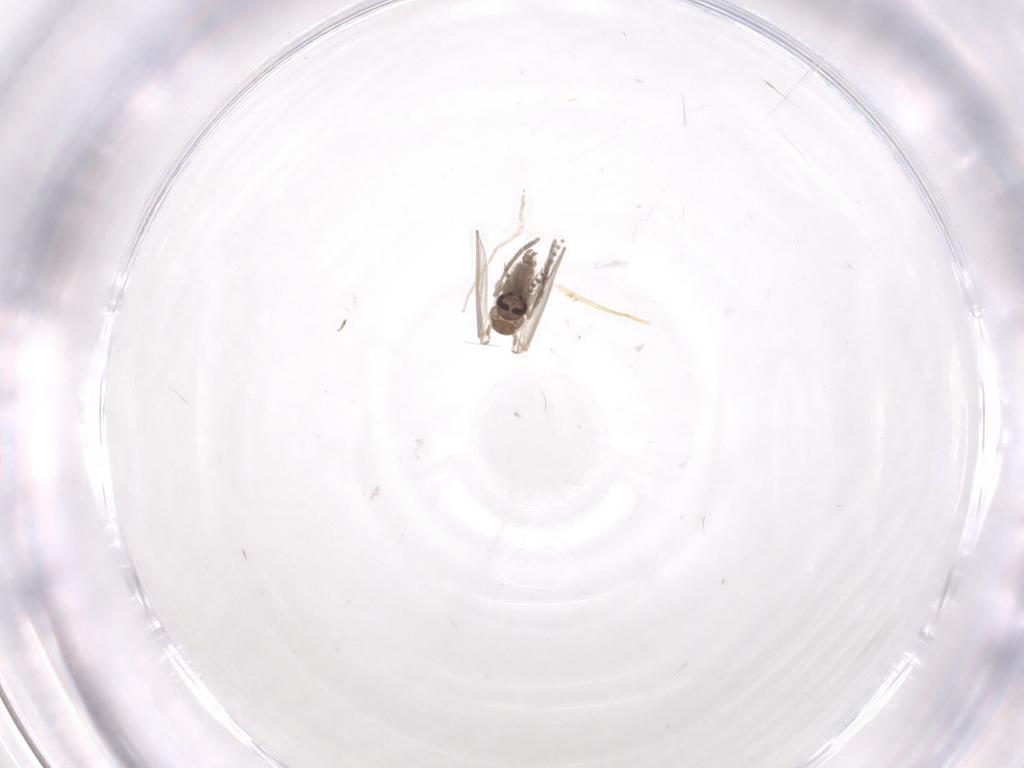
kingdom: Animalia
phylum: Arthropoda
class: Insecta
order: Diptera
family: Psychodidae
